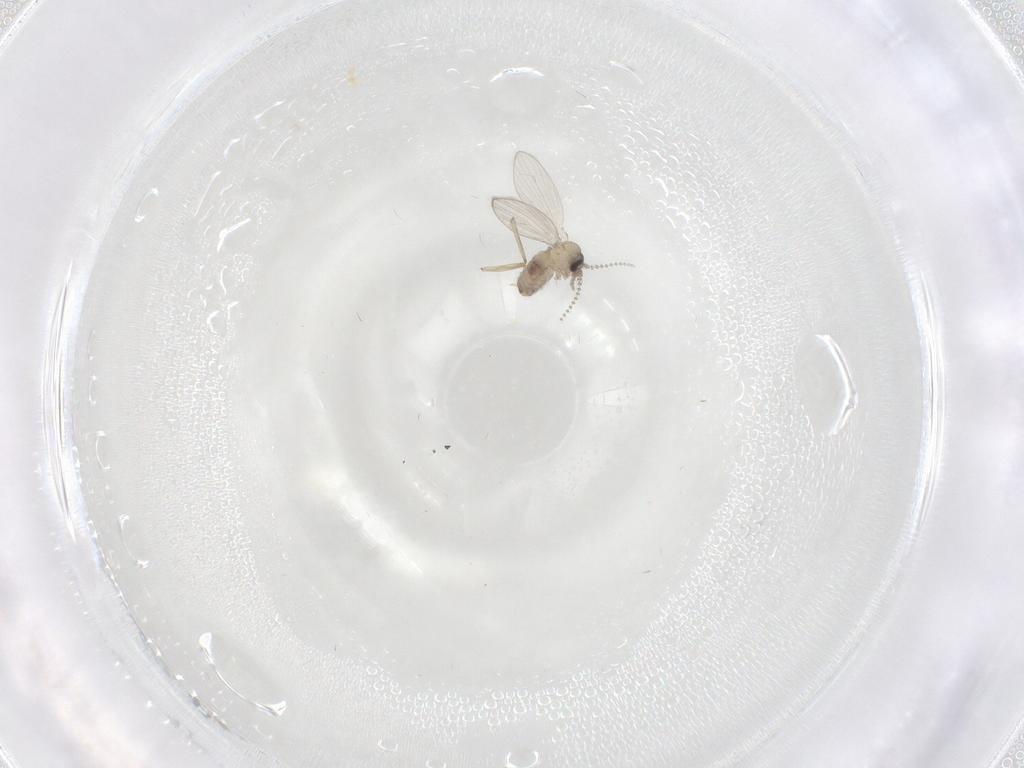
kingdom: Animalia
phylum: Arthropoda
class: Insecta
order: Diptera
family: Psychodidae
